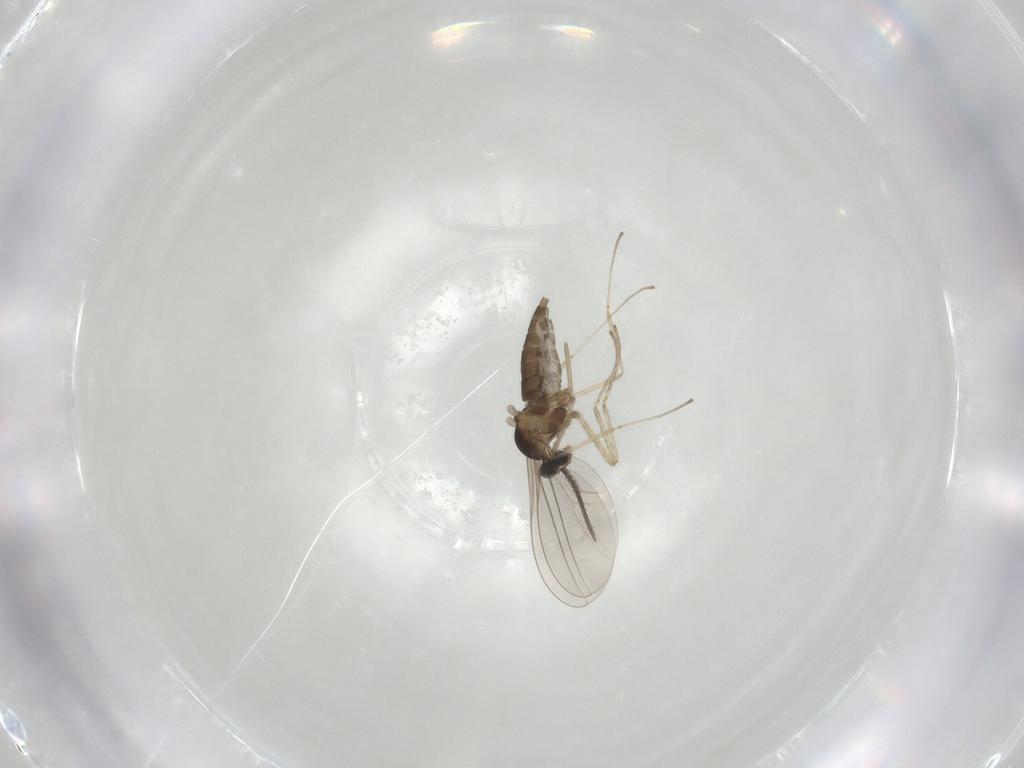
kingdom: Animalia
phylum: Arthropoda
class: Insecta
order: Diptera
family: Cecidomyiidae
